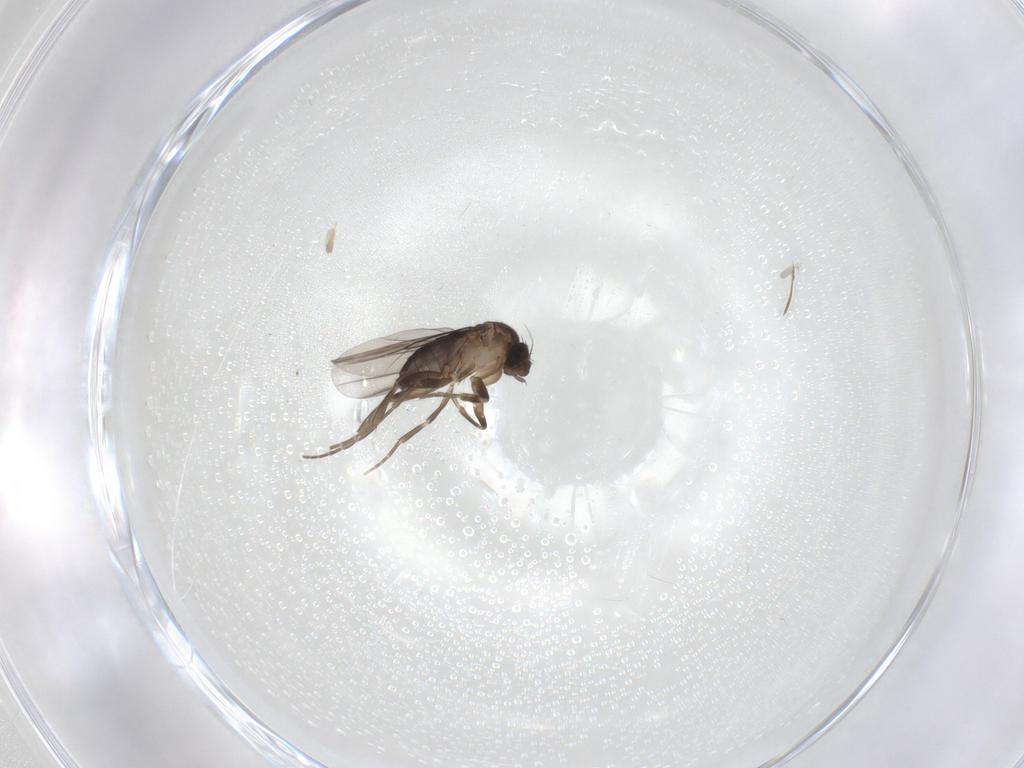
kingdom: Animalia
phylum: Arthropoda
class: Insecta
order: Diptera
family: Phoridae
